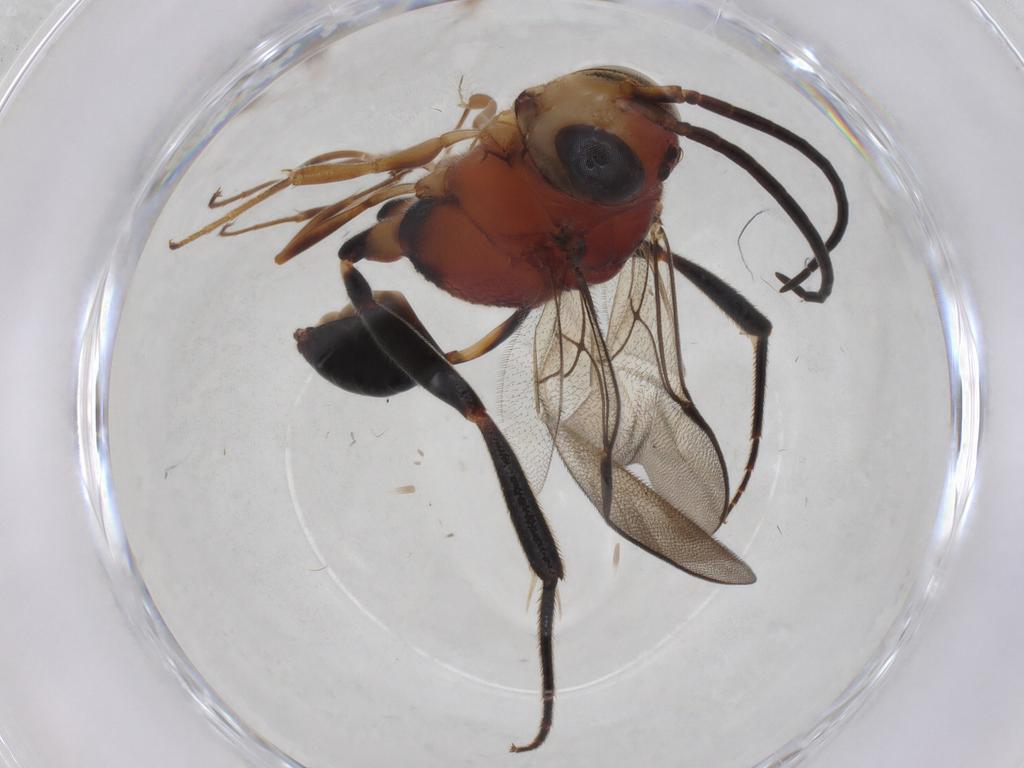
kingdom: Animalia
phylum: Arthropoda
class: Insecta
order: Hymenoptera
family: Evaniidae
